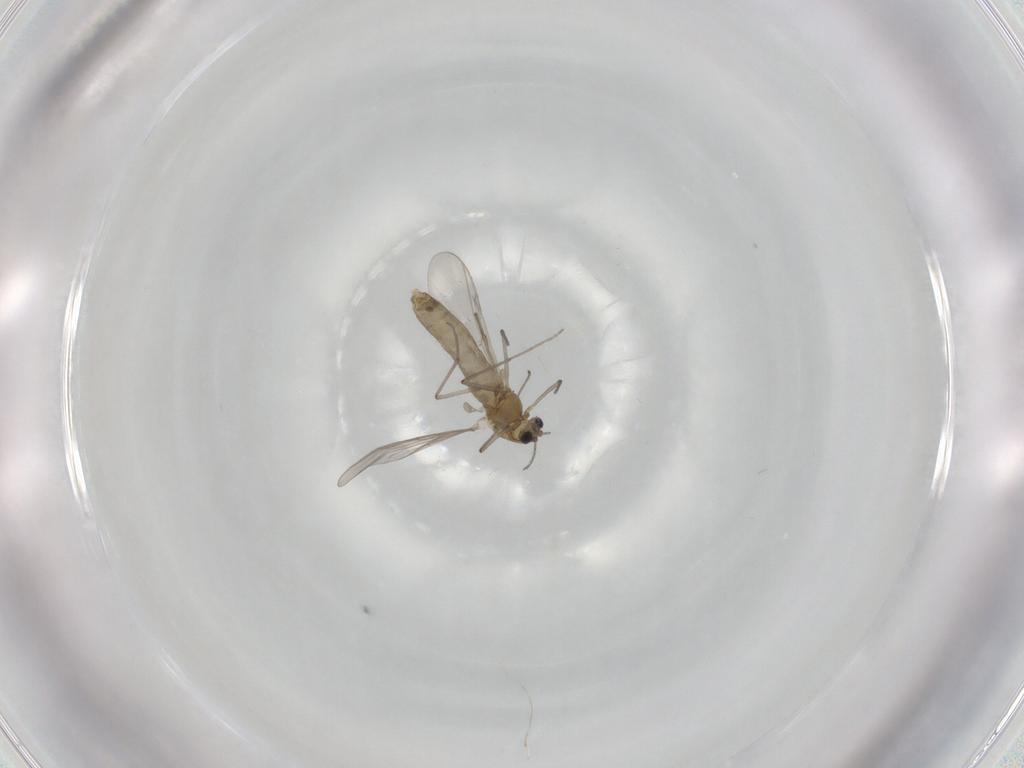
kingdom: Animalia
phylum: Arthropoda
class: Insecta
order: Diptera
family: Chironomidae
